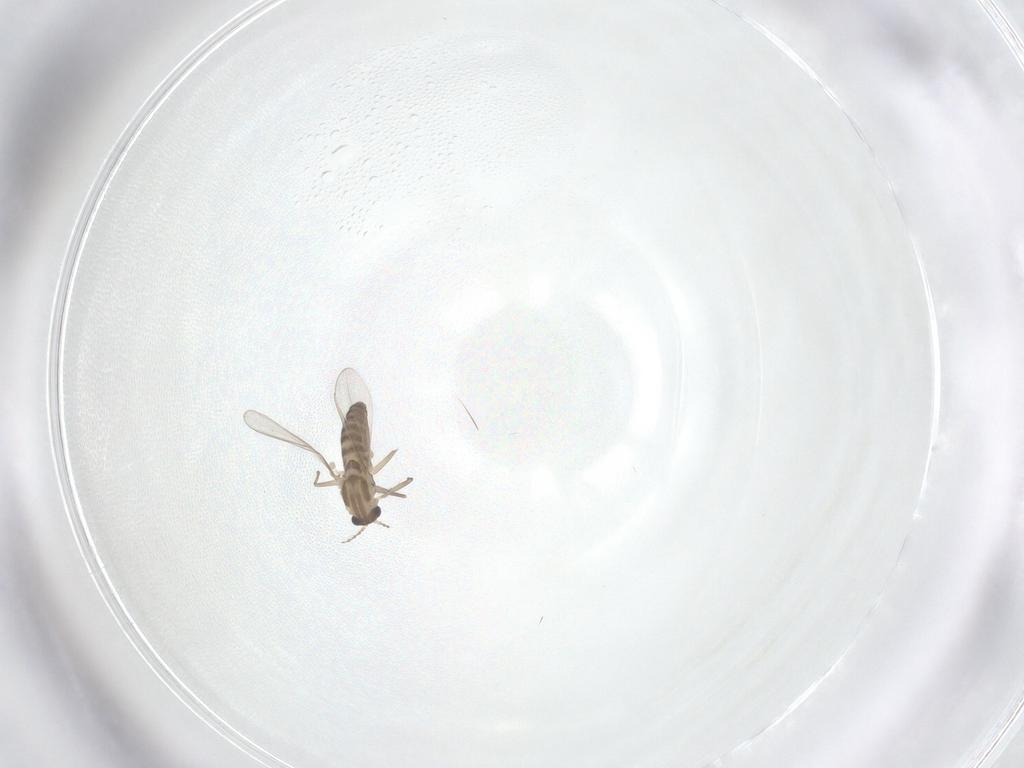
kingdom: Animalia
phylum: Arthropoda
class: Insecta
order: Diptera
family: Chironomidae
